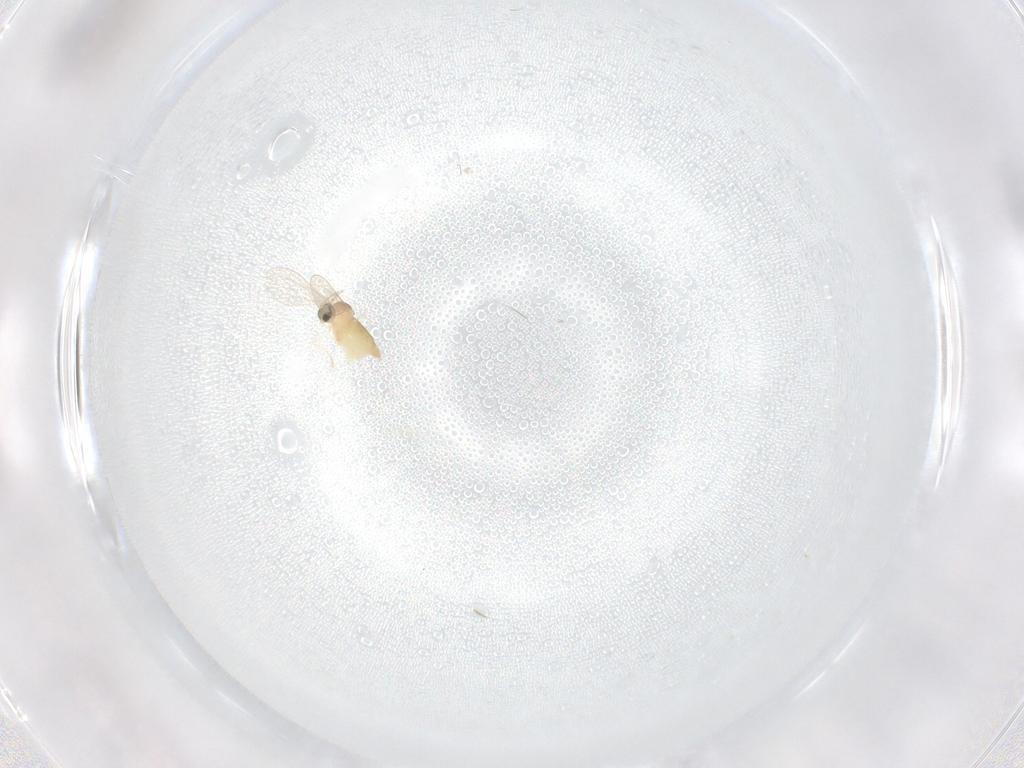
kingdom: Animalia
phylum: Arthropoda
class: Insecta
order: Diptera
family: Cecidomyiidae
